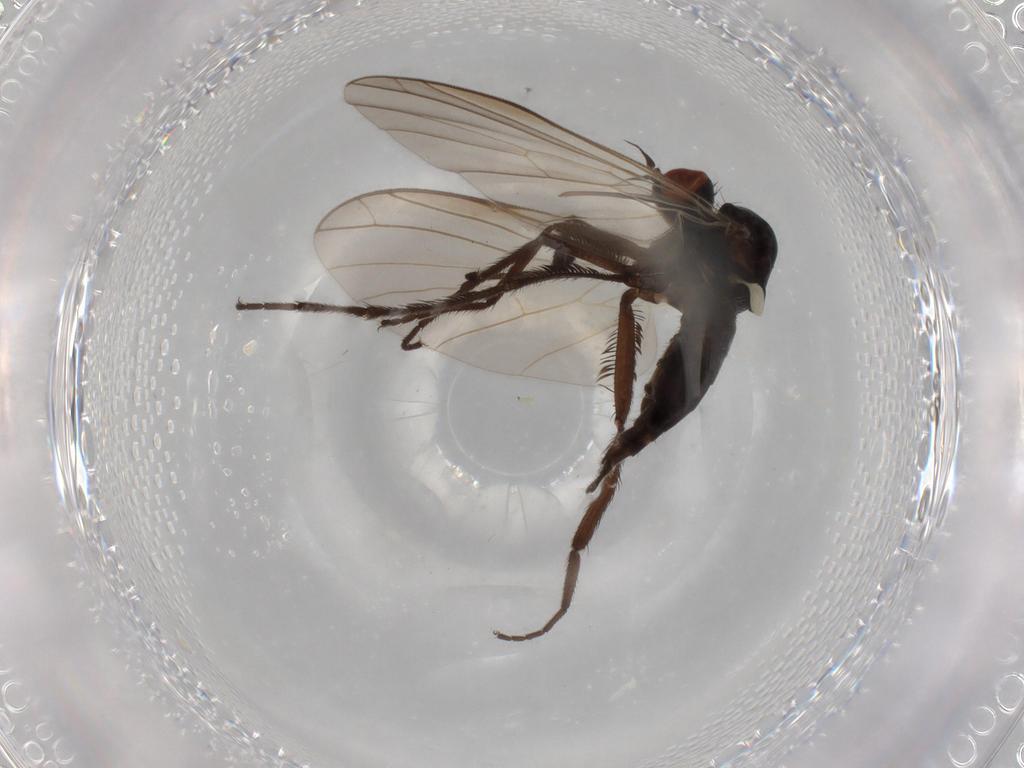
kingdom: Animalia
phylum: Arthropoda
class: Insecta
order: Diptera
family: Empididae
